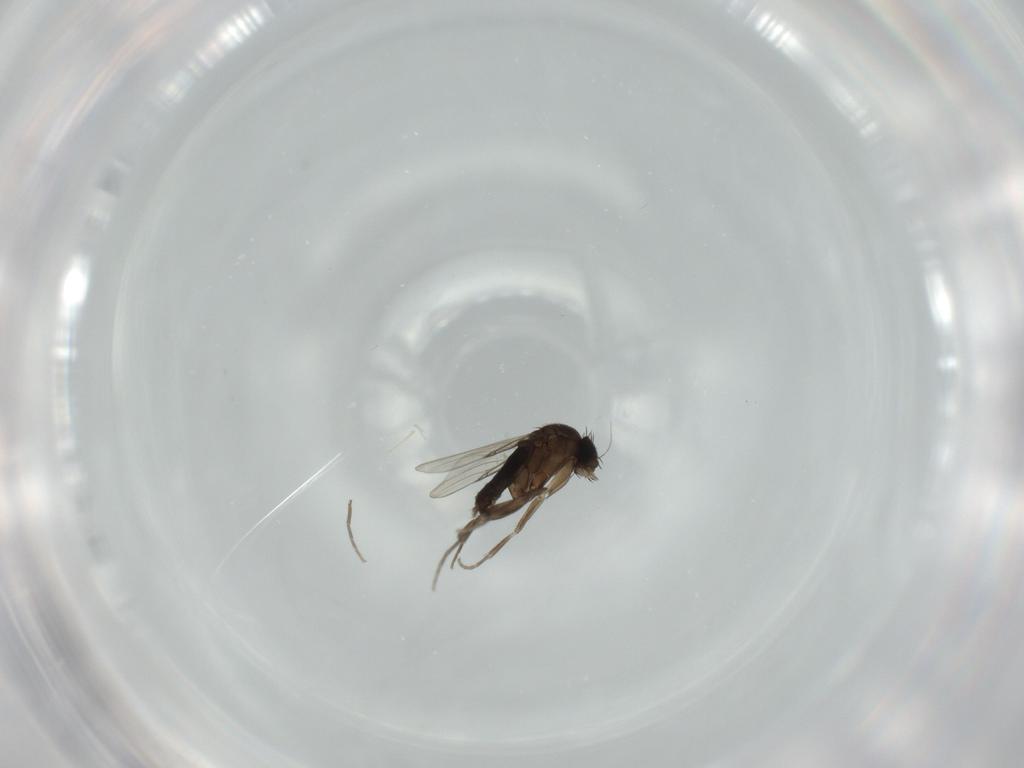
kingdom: Animalia
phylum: Arthropoda
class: Insecta
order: Diptera
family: Phoridae
